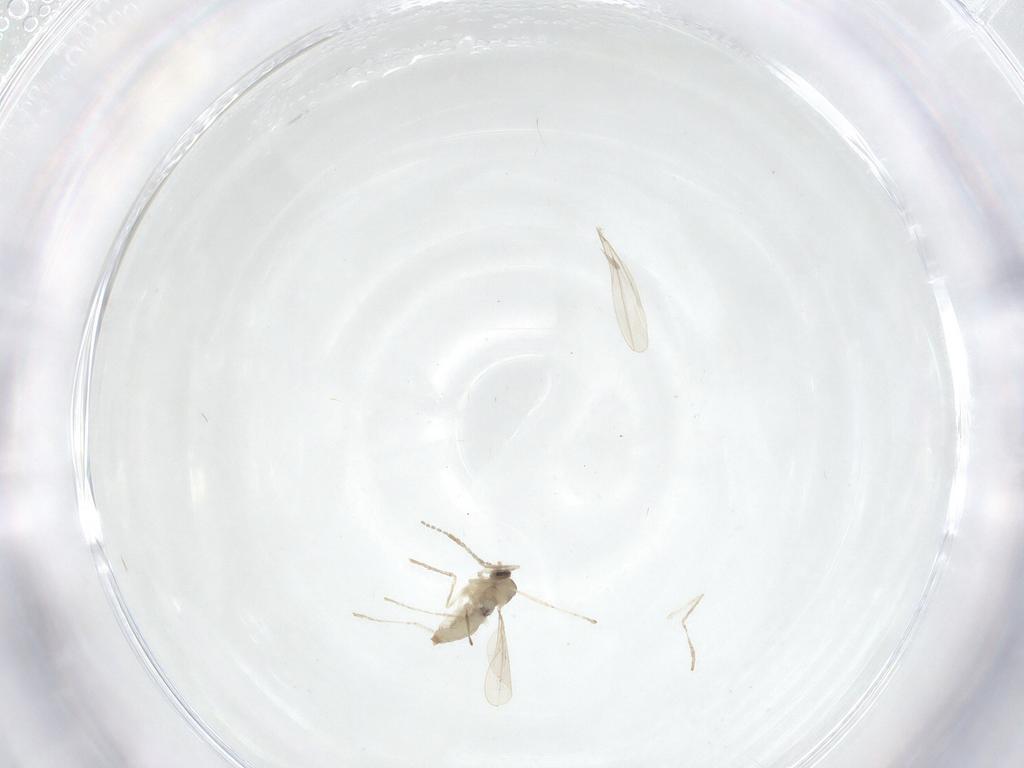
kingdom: Animalia
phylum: Arthropoda
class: Insecta
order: Diptera
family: Cecidomyiidae
